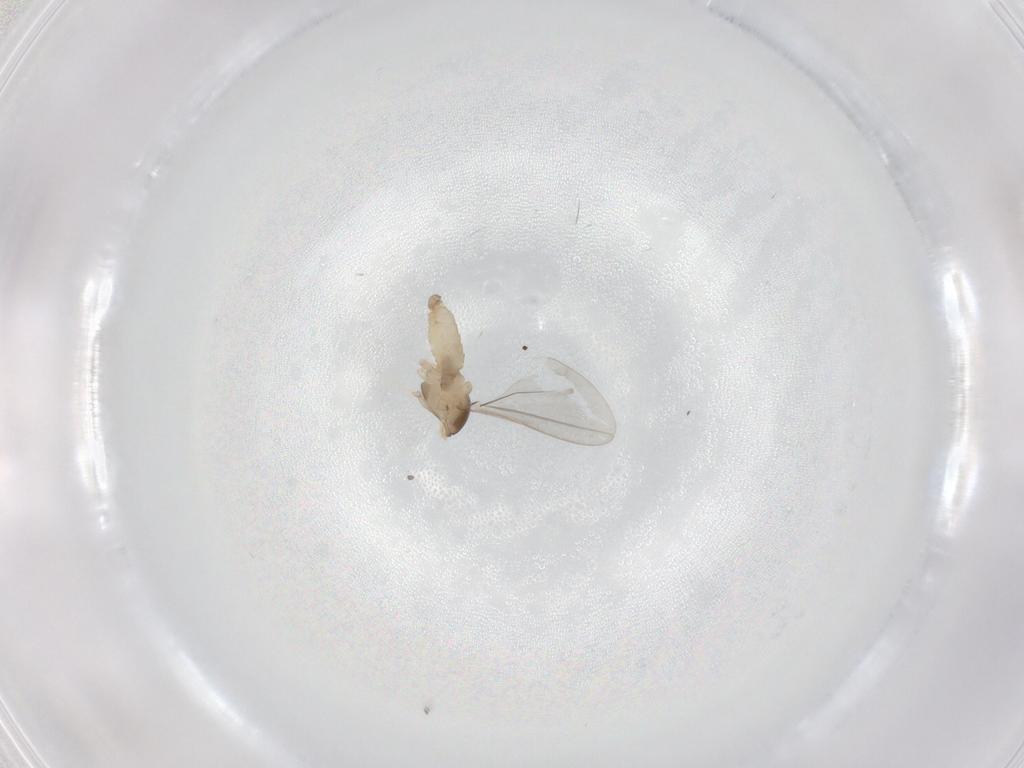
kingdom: Animalia
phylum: Arthropoda
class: Insecta
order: Diptera
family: Cecidomyiidae
